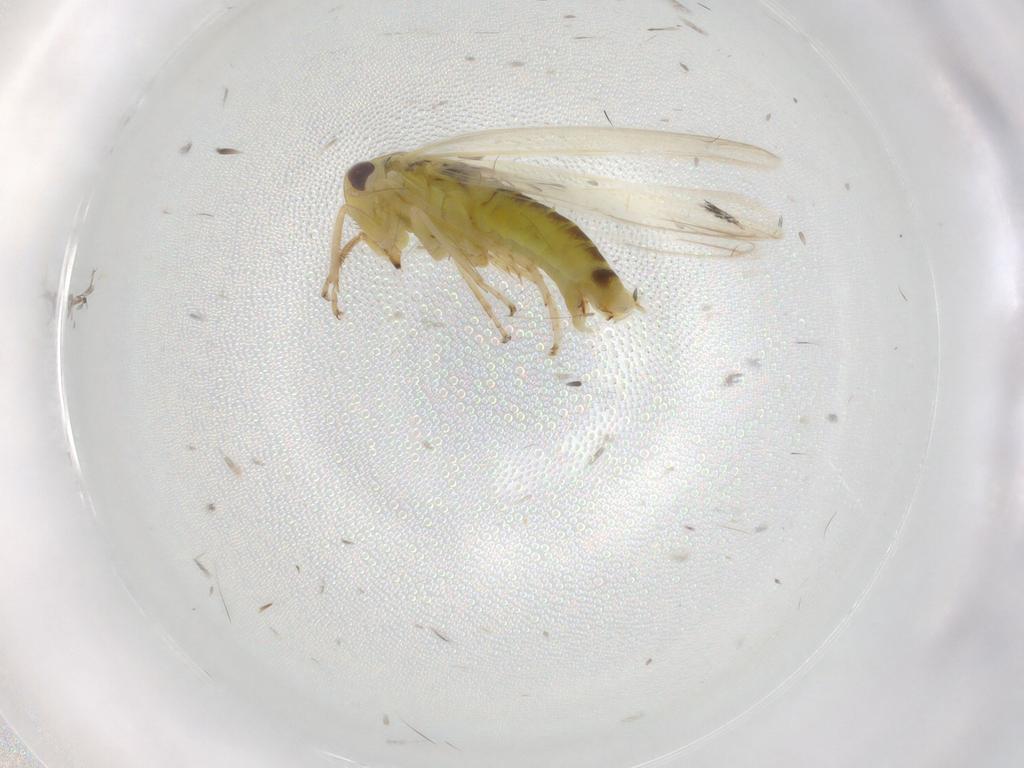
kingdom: Animalia
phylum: Arthropoda
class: Insecta
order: Hemiptera
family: Cicadellidae
